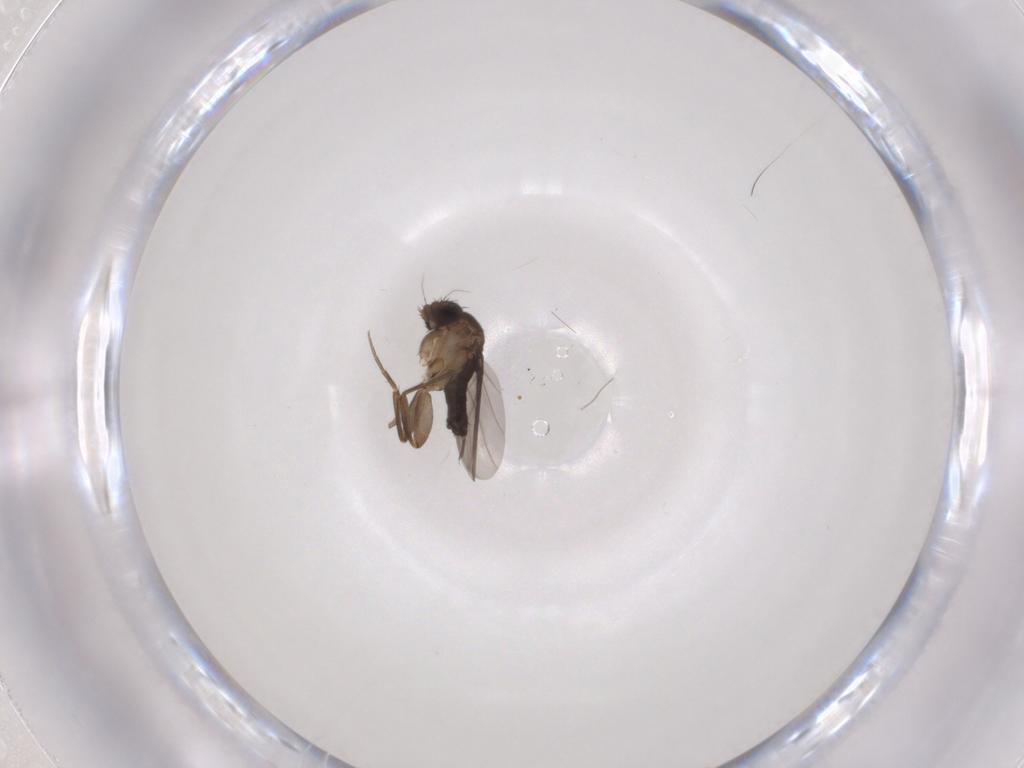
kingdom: Animalia
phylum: Arthropoda
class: Insecta
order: Diptera
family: Phoridae
